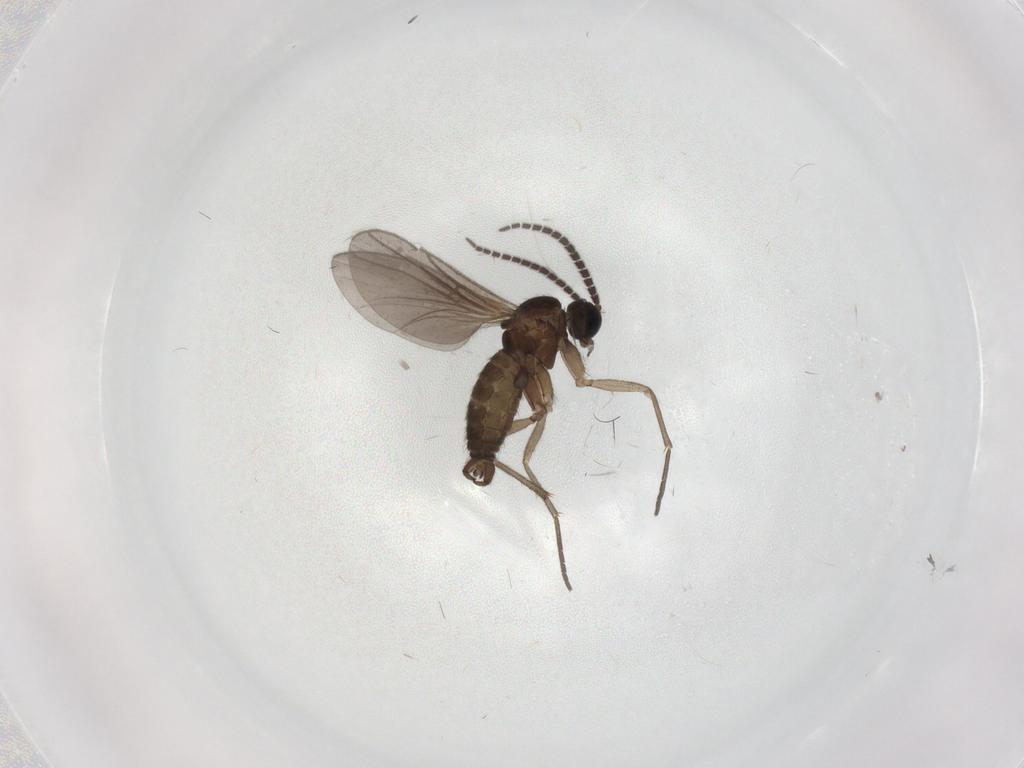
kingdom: Animalia
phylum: Arthropoda
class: Insecta
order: Diptera
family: Sciaridae
